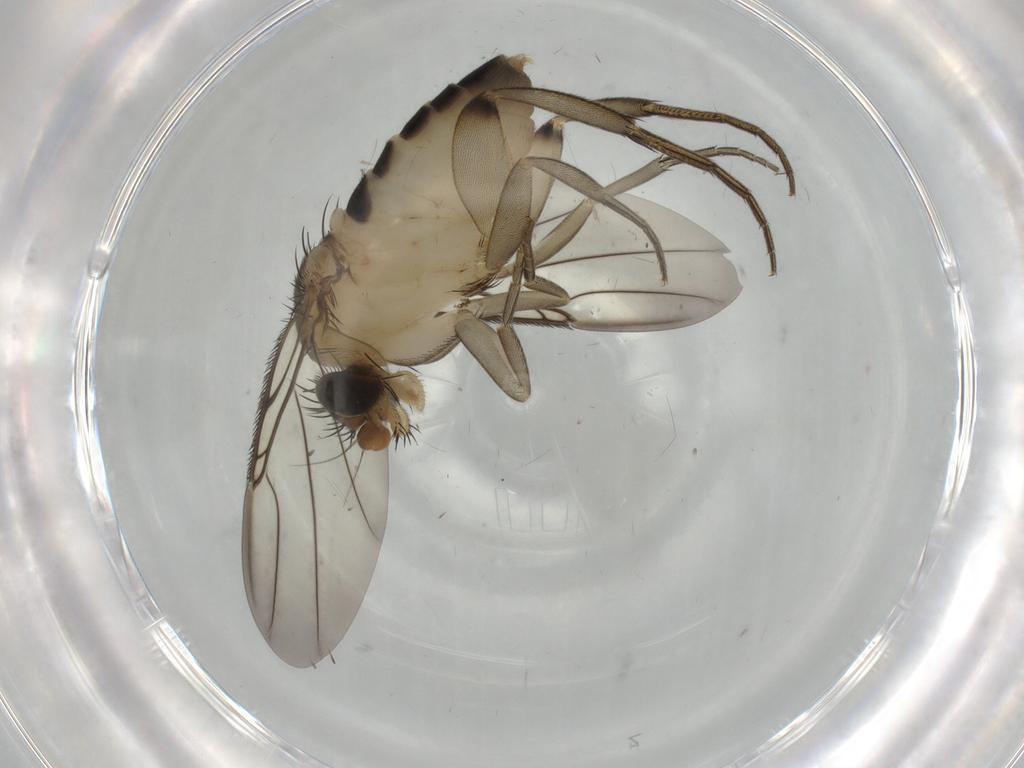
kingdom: Animalia
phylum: Arthropoda
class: Insecta
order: Diptera
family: Cecidomyiidae
